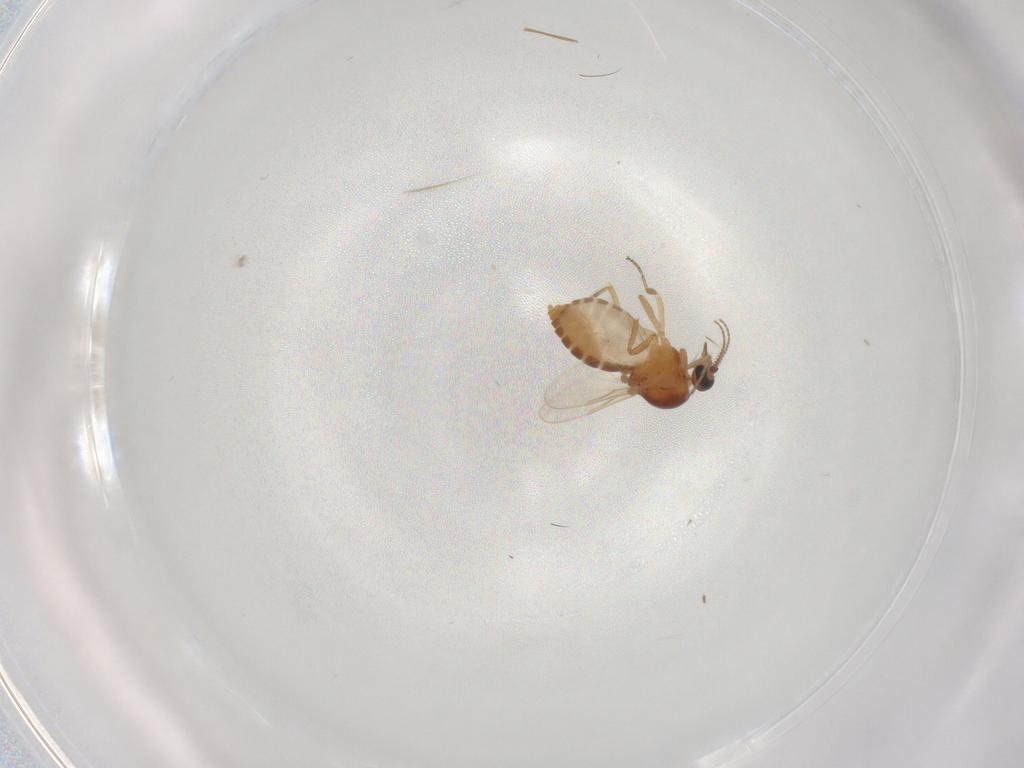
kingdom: Animalia
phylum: Arthropoda
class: Insecta
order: Diptera
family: Ceratopogonidae
